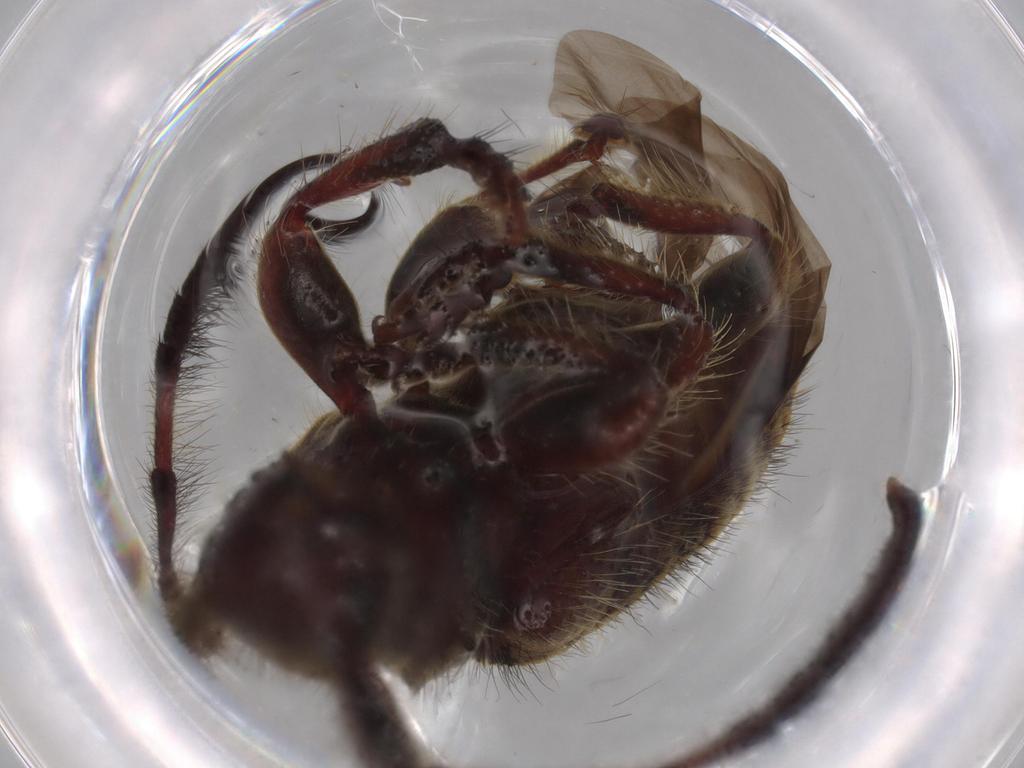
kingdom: Animalia
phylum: Arthropoda
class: Insecta
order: Coleoptera
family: Cerambycidae
